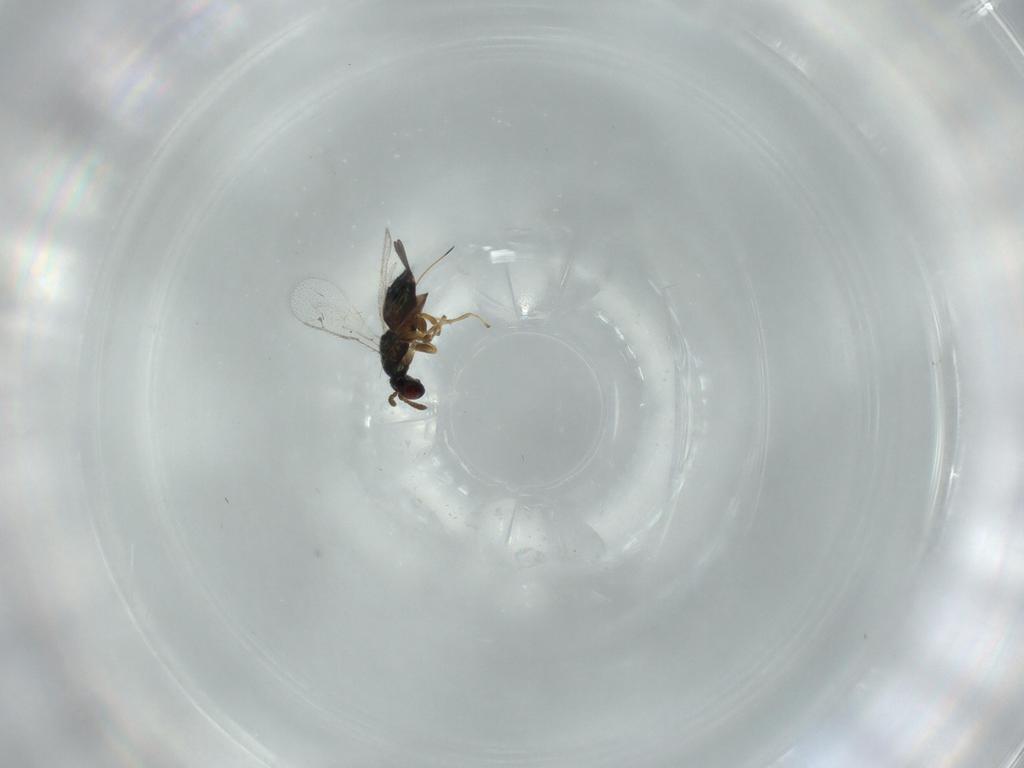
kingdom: Animalia
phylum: Arthropoda
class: Insecta
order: Hymenoptera
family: Torymidae
